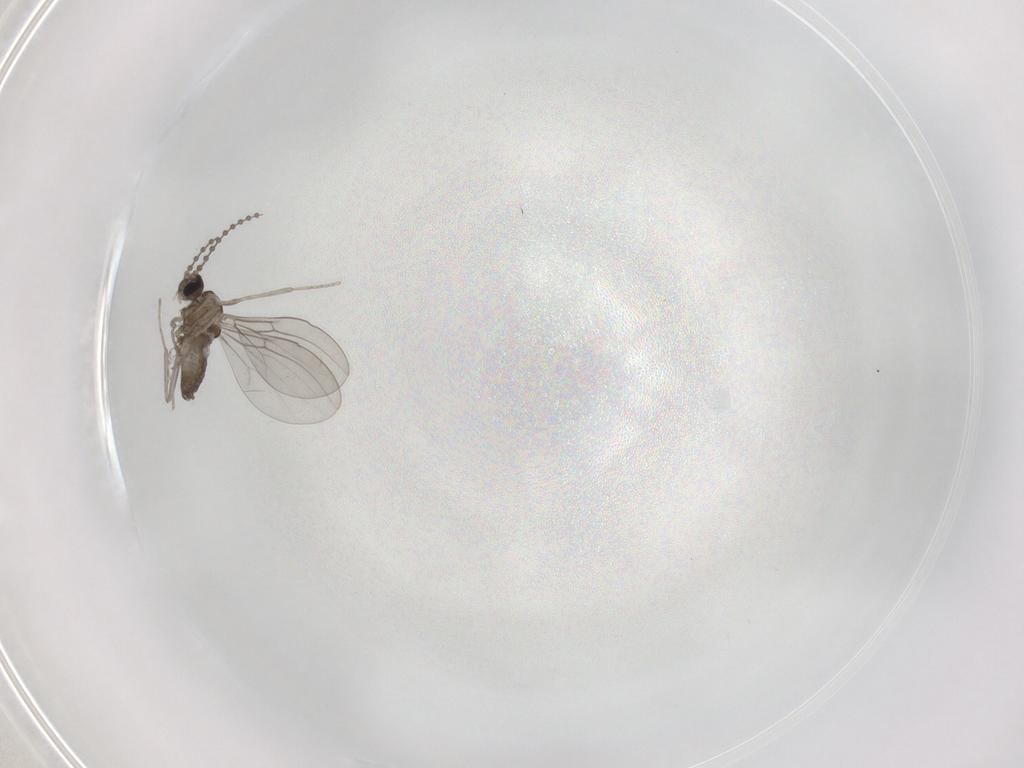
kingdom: Animalia
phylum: Arthropoda
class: Insecta
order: Diptera
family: Cecidomyiidae
